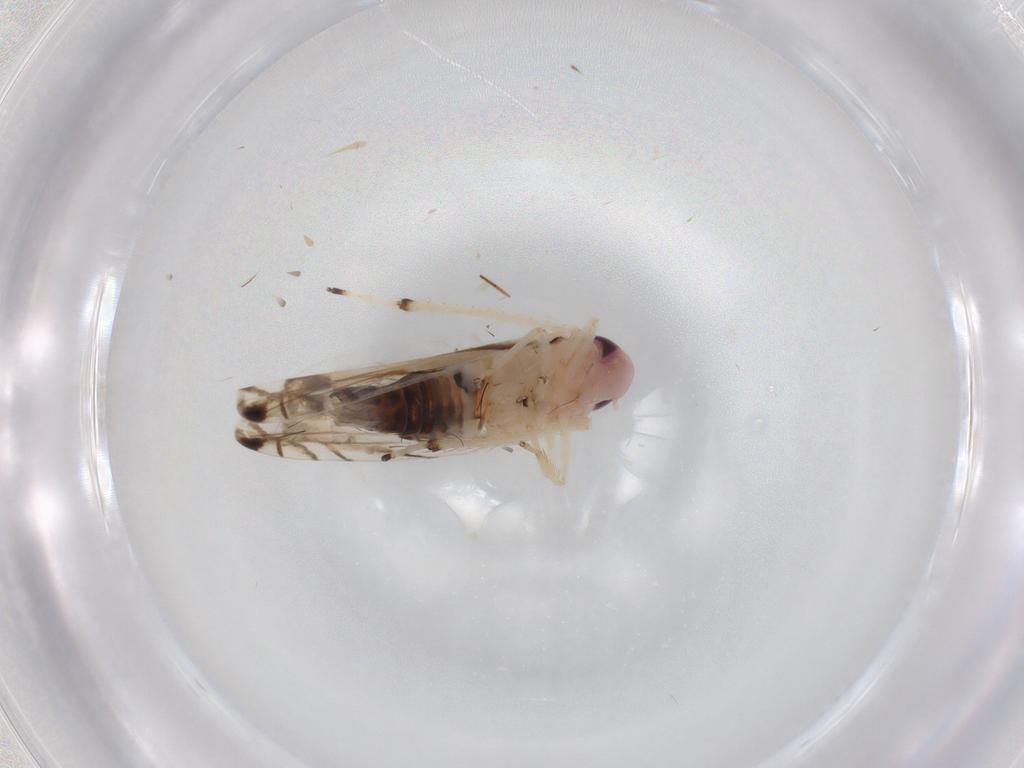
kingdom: Animalia
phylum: Arthropoda
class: Insecta
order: Hemiptera
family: Cicadellidae
